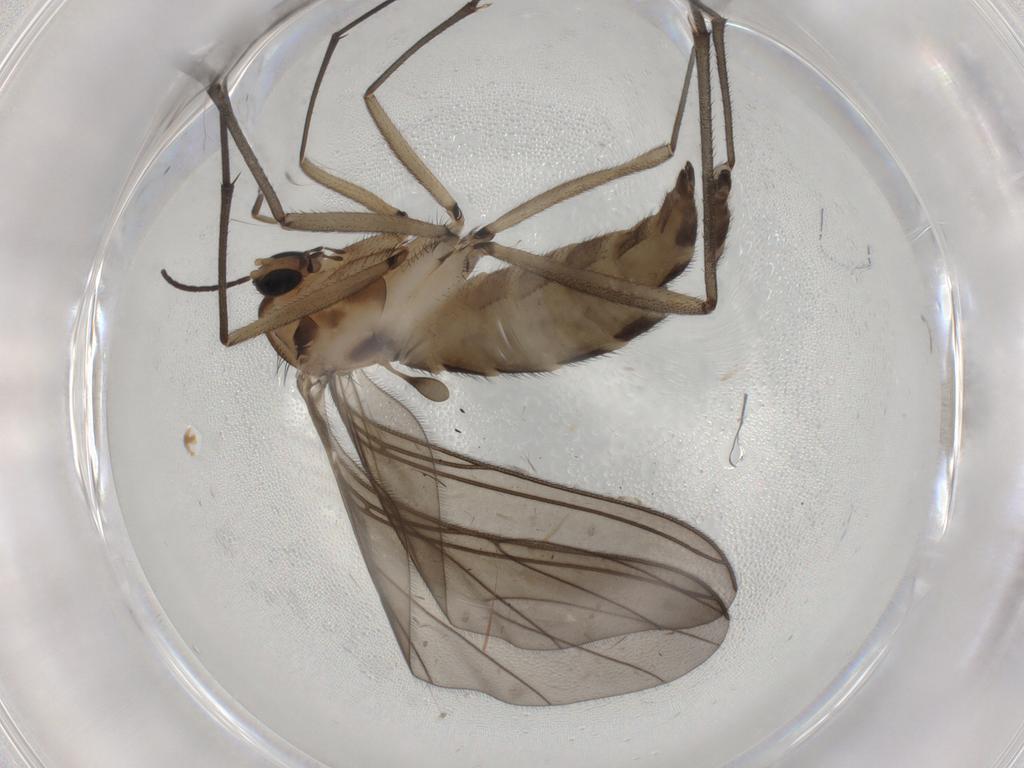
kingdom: Animalia
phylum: Arthropoda
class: Insecta
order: Diptera
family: Sciaridae
